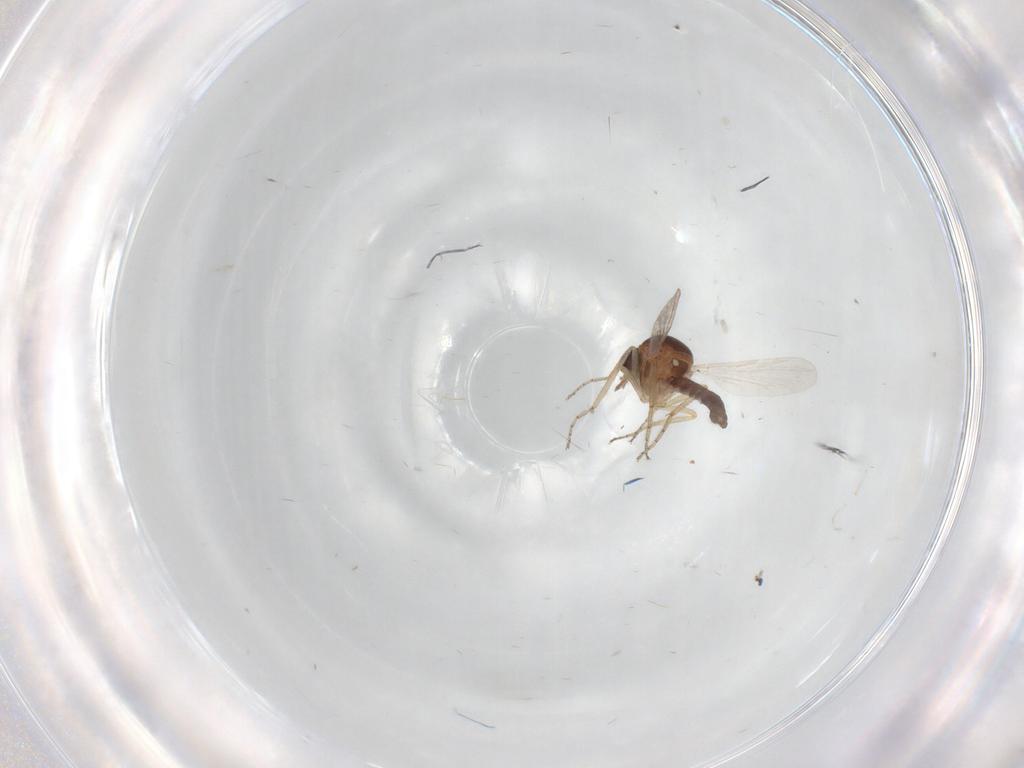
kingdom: Animalia
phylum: Arthropoda
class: Insecta
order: Diptera
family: Ceratopogonidae
